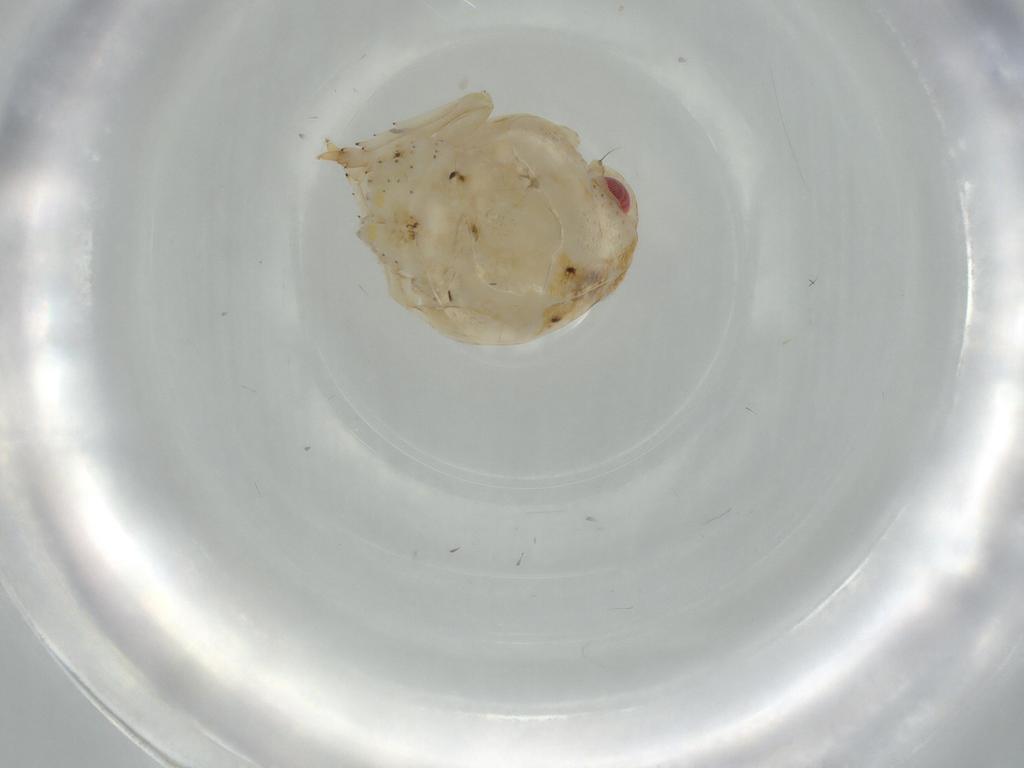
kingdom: Animalia
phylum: Arthropoda
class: Insecta
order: Hemiptera
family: Acanaloniidae
